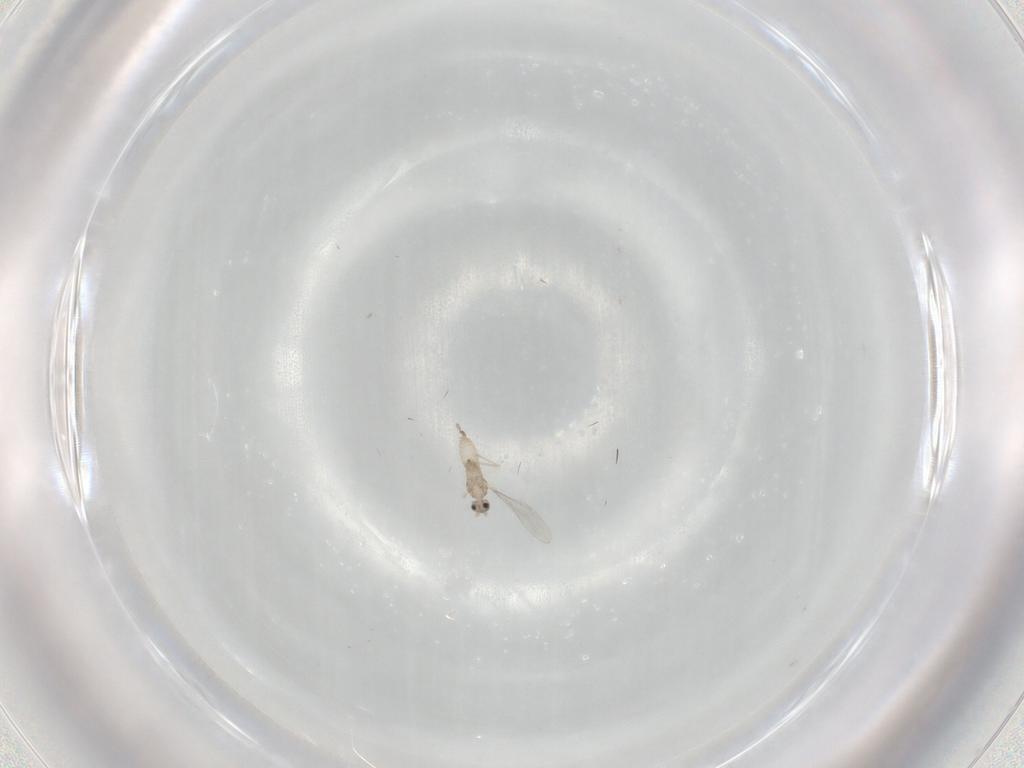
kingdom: Animalia
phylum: Arthropoda
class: Insecta
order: Diptera
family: Cecidomyiidae
